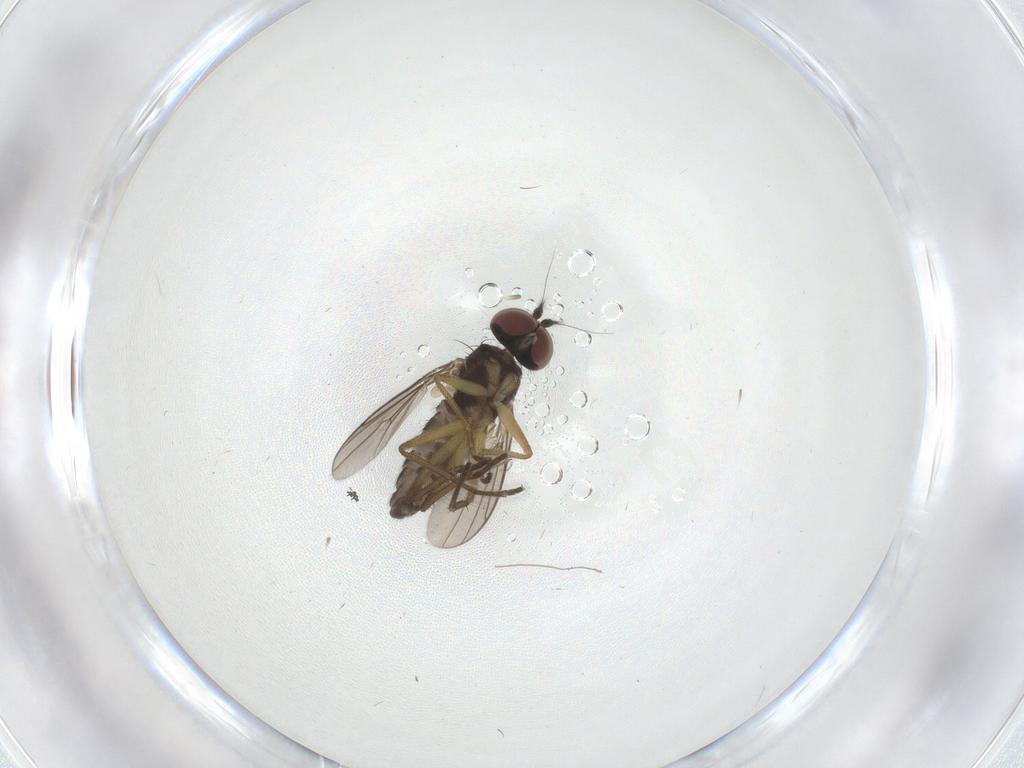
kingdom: Animalia
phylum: Arthropoda
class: Insecta
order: Diptera
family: Dolichopodidae
